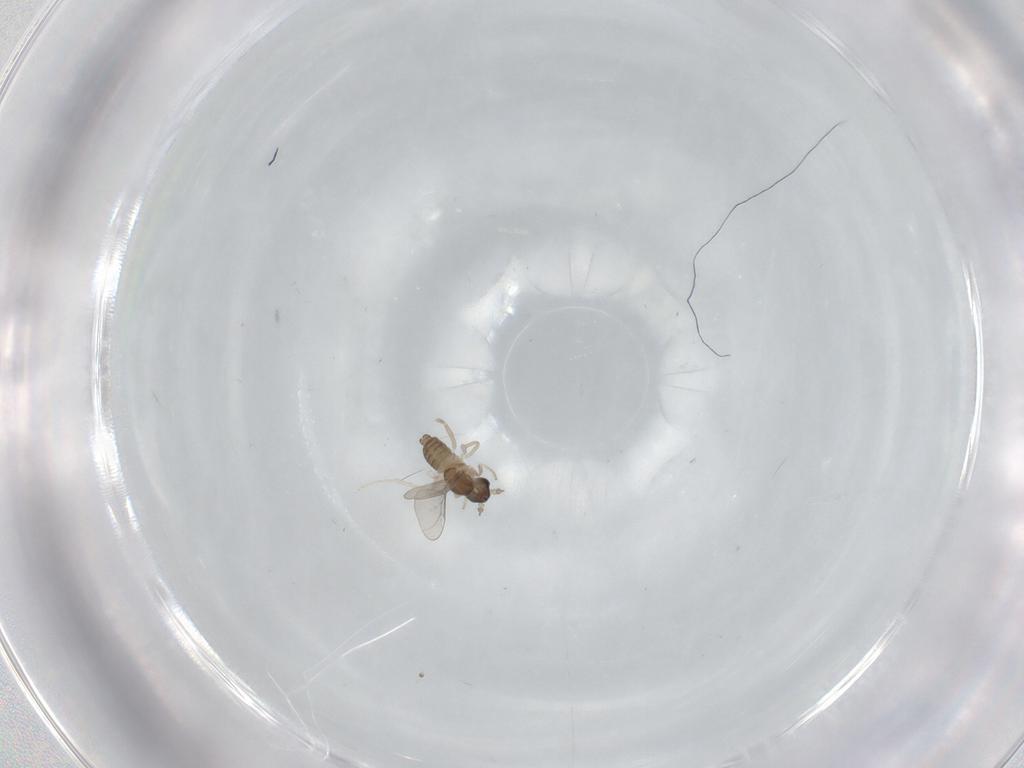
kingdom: Animalia
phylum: Arthropoda
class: Insecta
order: Diptera
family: Cecidomyiidae
